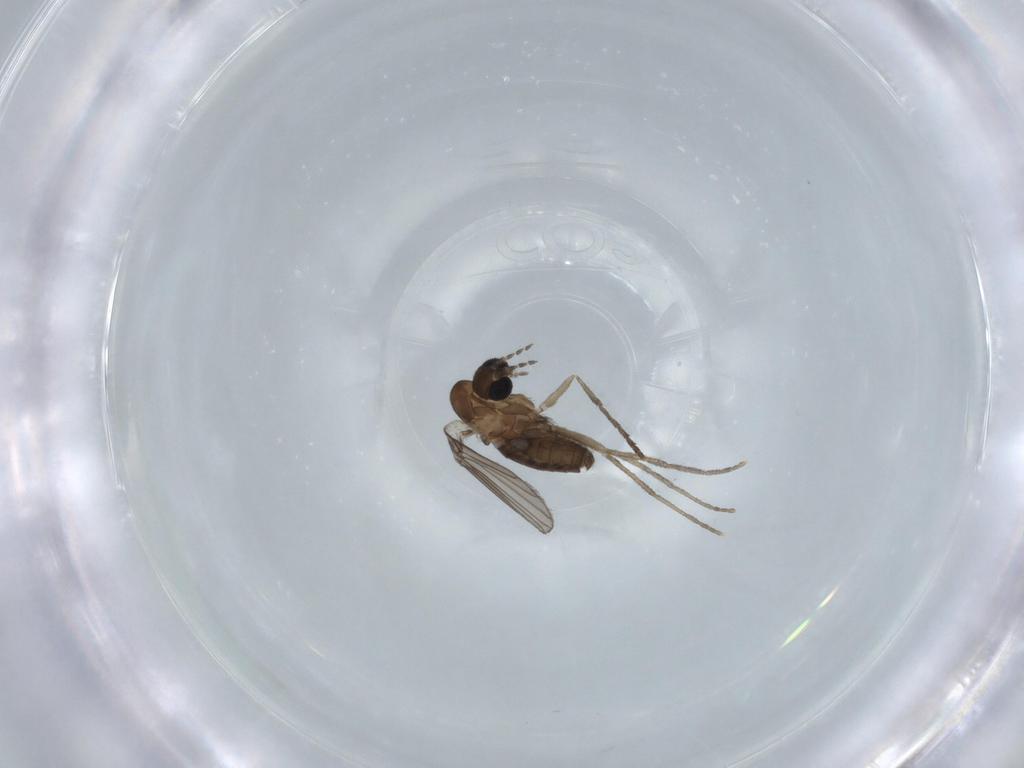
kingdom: Animalia
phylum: Arthropoda
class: Insecta
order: Diptera
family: Psychodidae
